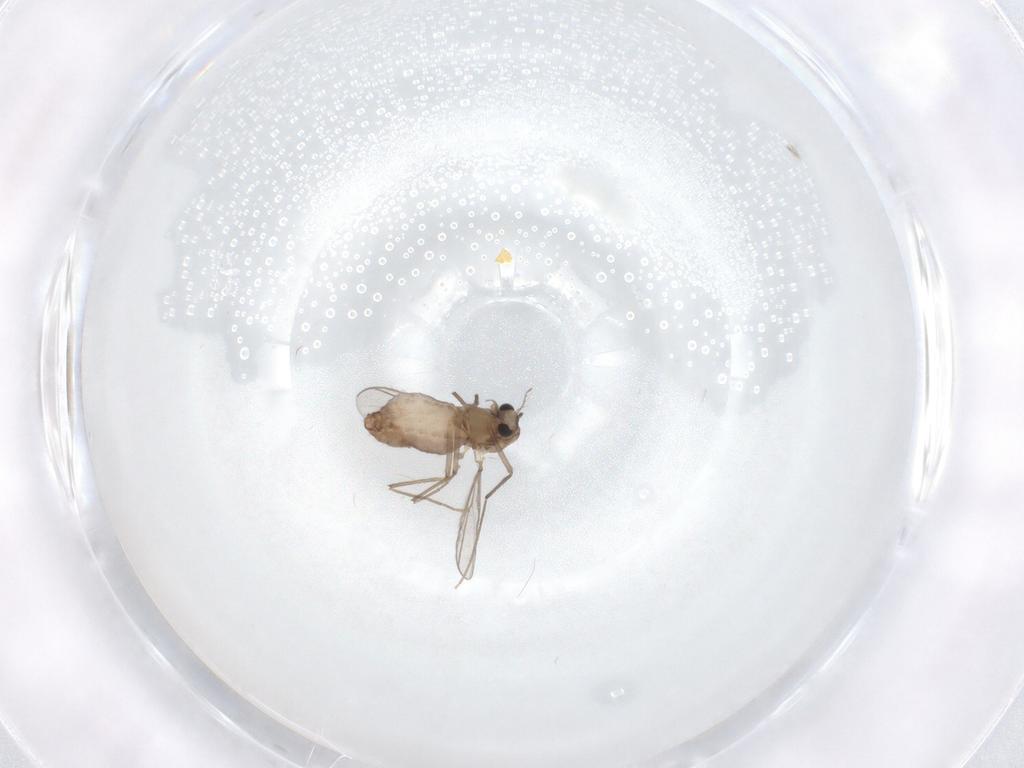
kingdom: Animalia
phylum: Arthropoda
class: Insecta
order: Diptera
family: Chironomidae
